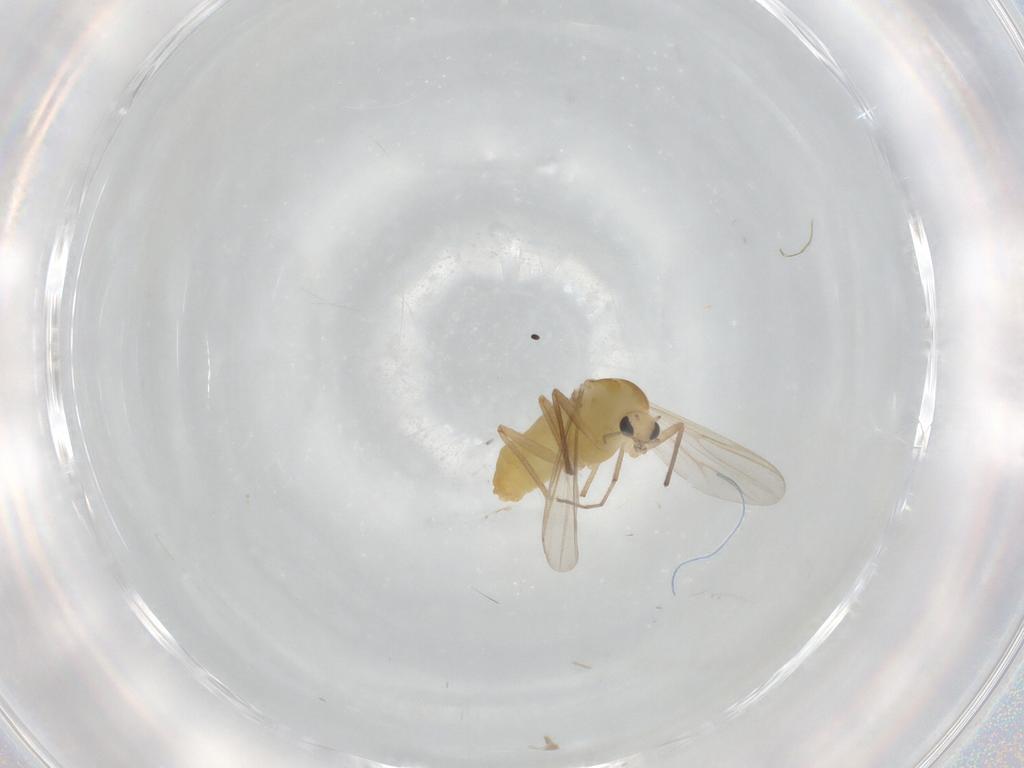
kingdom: Animalia
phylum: Arthropoda
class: Insecta
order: Diptera
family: Chironomidae
